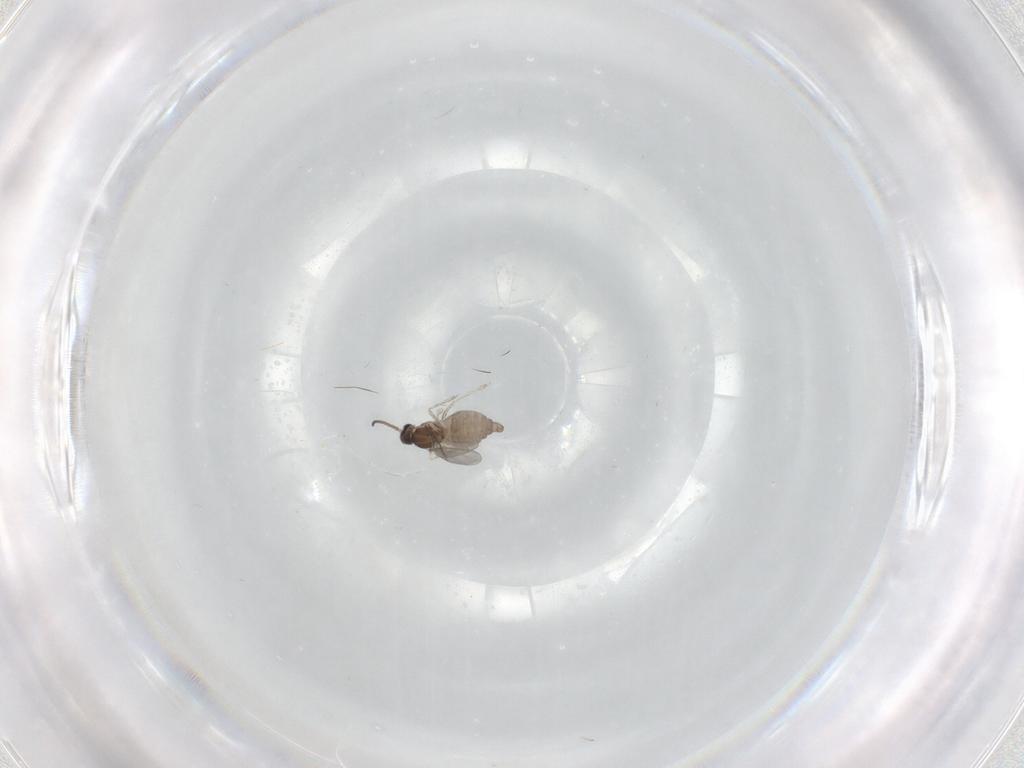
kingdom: Animalia
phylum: Arthropoda
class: Insecta
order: Diptera
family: Cecidomyiidae
